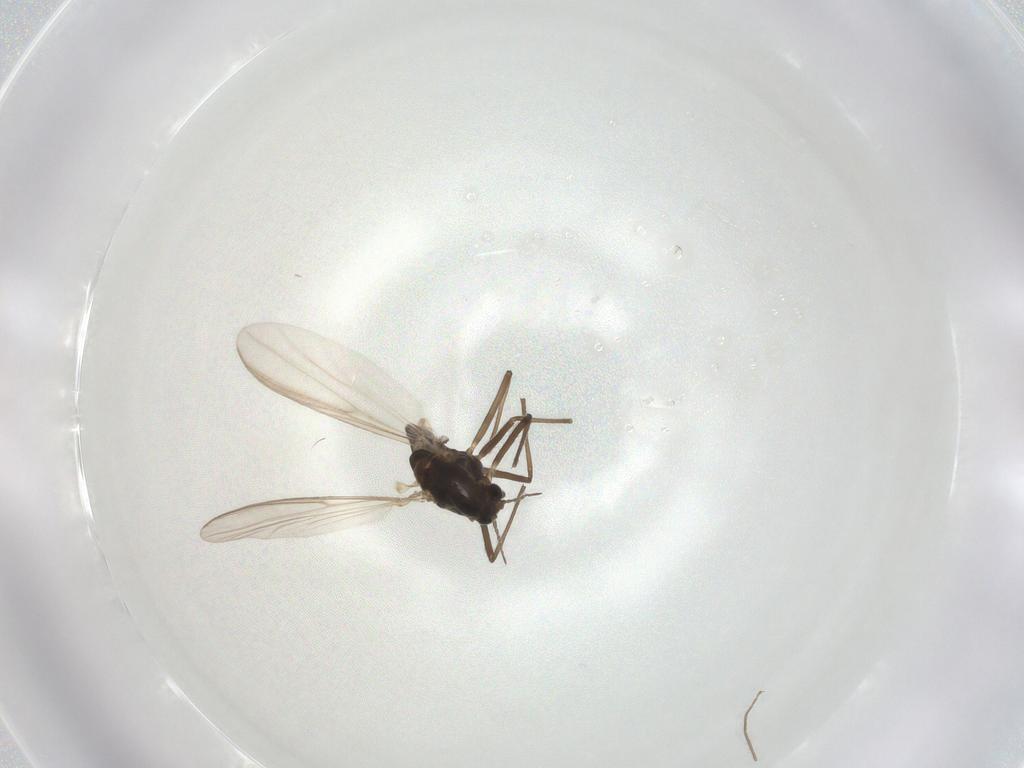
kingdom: Animalia
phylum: Arthropoda
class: Insecta
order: Diptera
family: Chironomidae
